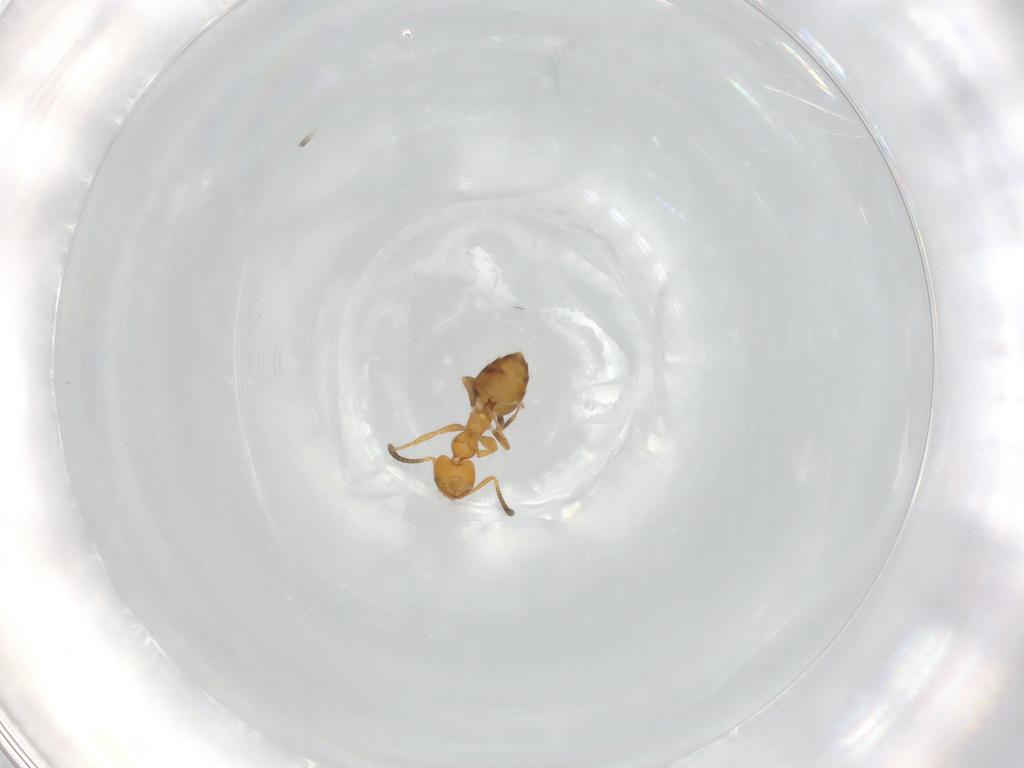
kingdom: Animalia
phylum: Arthropoda
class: Insecta
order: Hymenoptera
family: Formicidae
